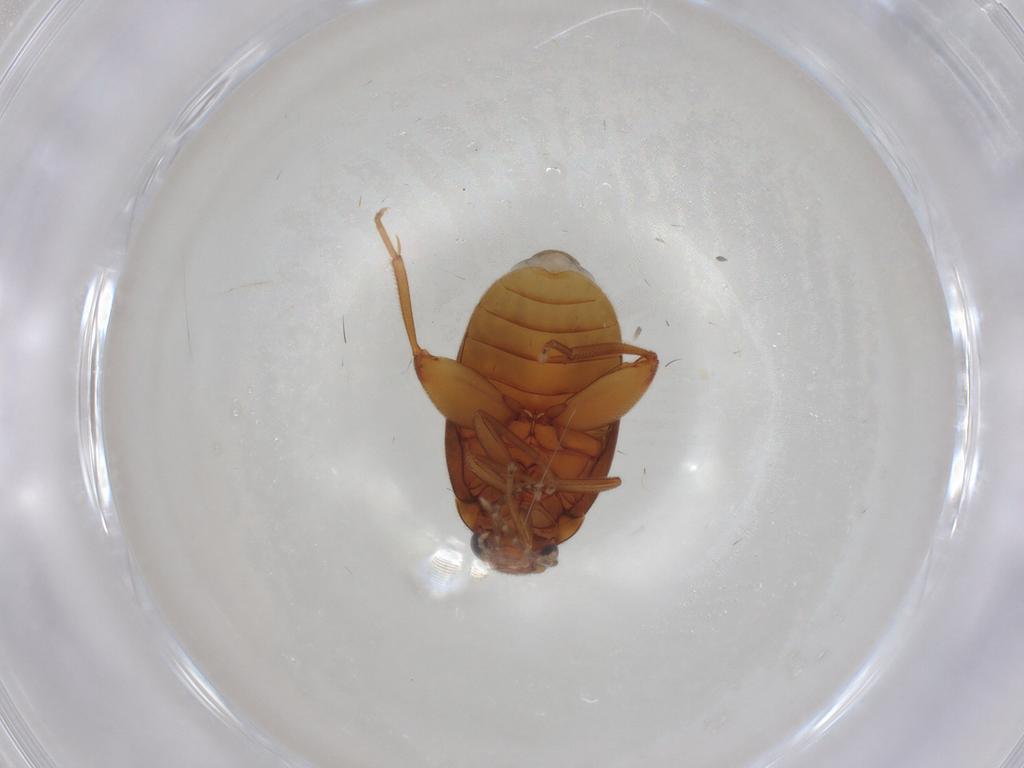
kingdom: Animalia
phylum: Arthropoda
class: Insecta
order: Coleoptera
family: Scirtidae
